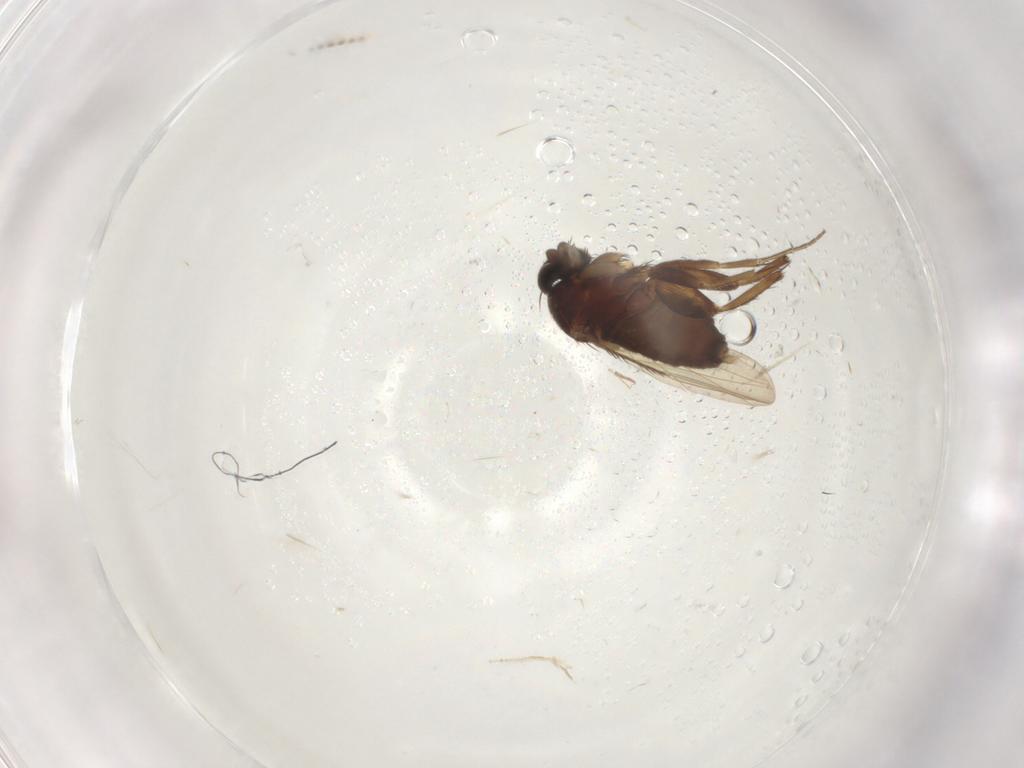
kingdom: Animalia
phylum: Arthropoda
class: Insecta
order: Diptera
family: Phoridae
